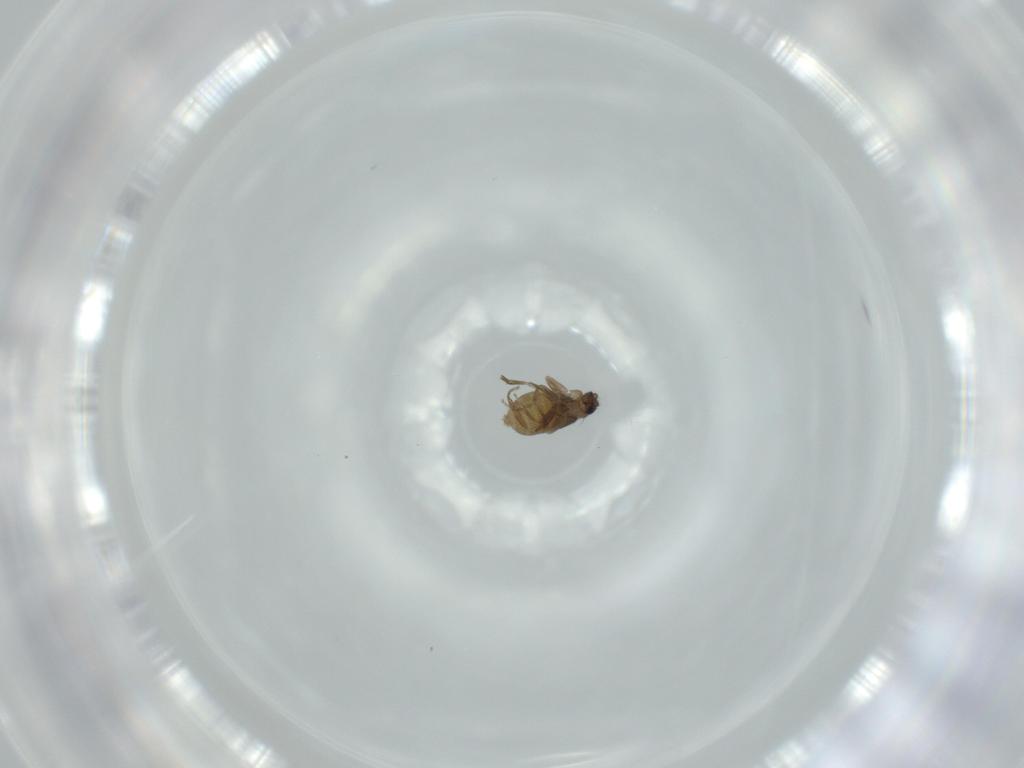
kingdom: Animalia
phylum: Arthropoda
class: Insecta
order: Diptera
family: Phoridae
